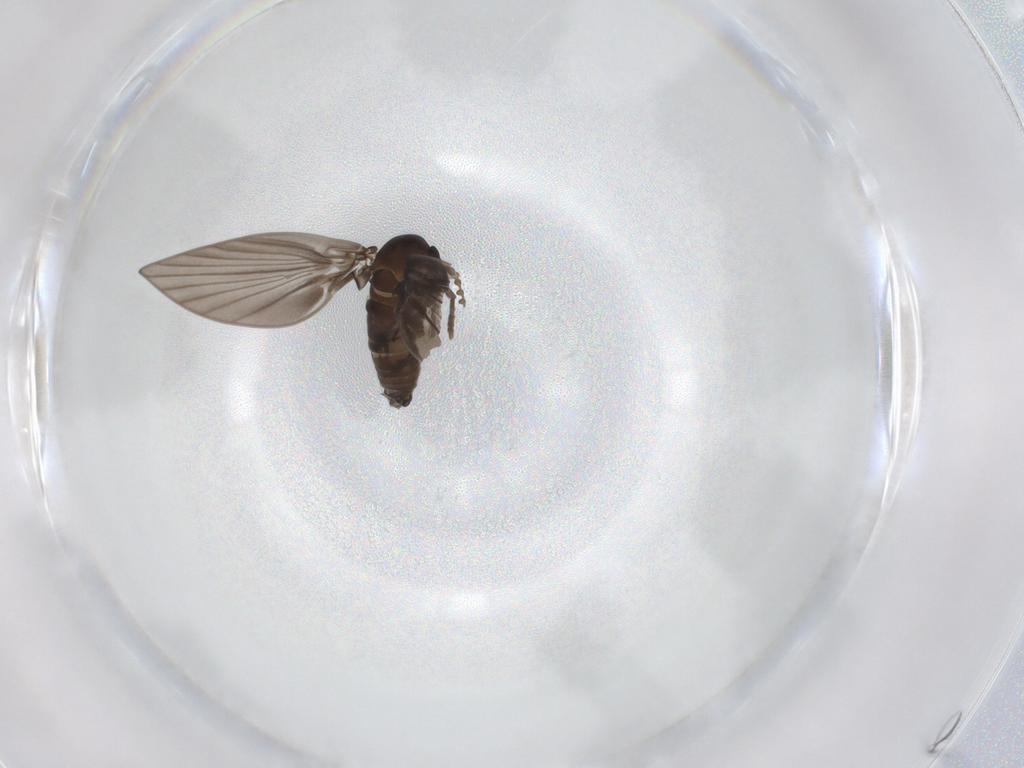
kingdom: Animalia
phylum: Arthropoda
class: Insecta
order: Diptera
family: Psychodidae
